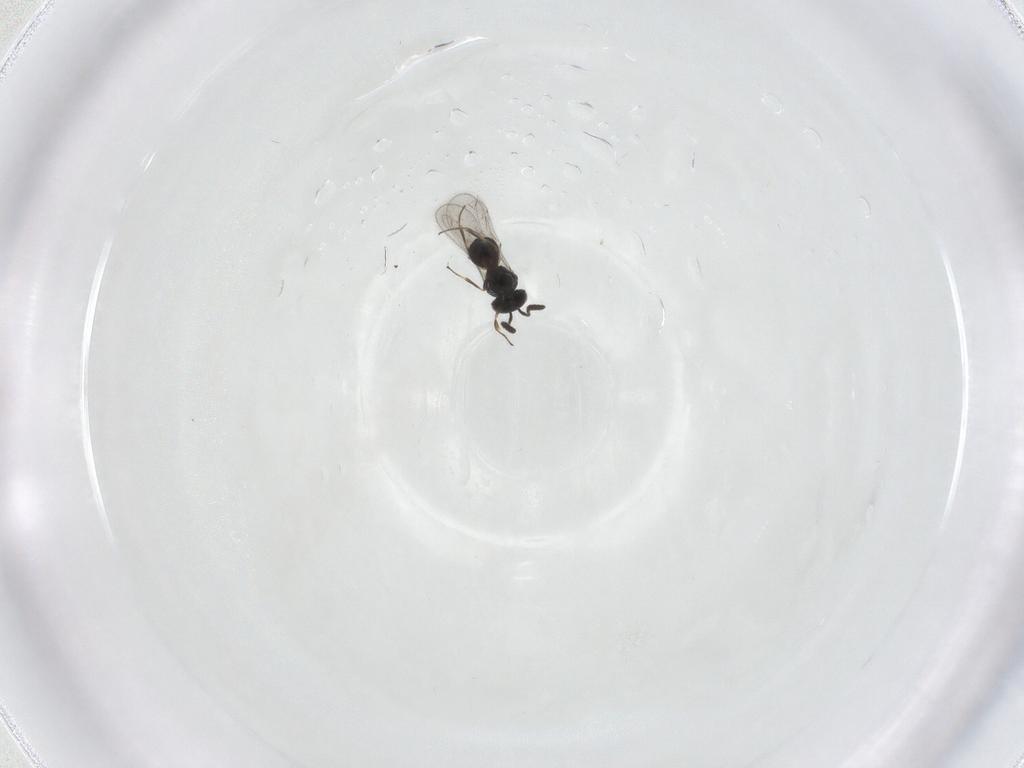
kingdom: Animalia
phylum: Arthropoda
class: Insecta
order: Hymenoptera
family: Scelionidae
